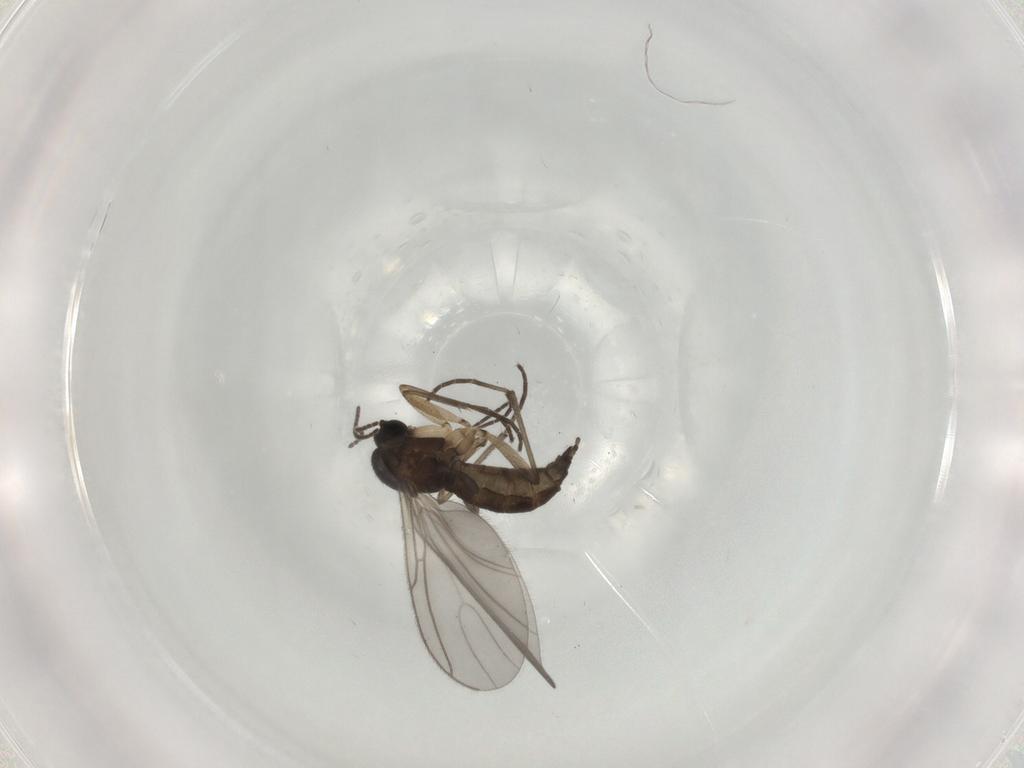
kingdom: Animalia
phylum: Arthropoda
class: Insecta
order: Diptera
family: Sciaridae
